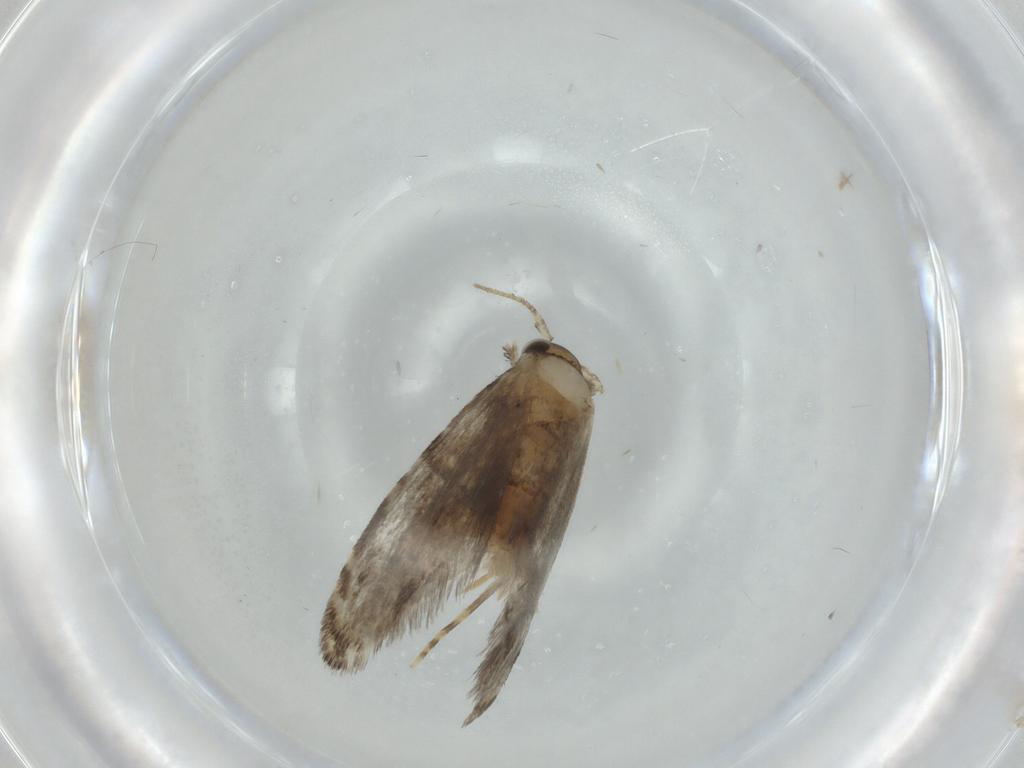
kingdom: Animalia
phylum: Arthropoda
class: Insecta
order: Lepidoptera
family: Tineidae
